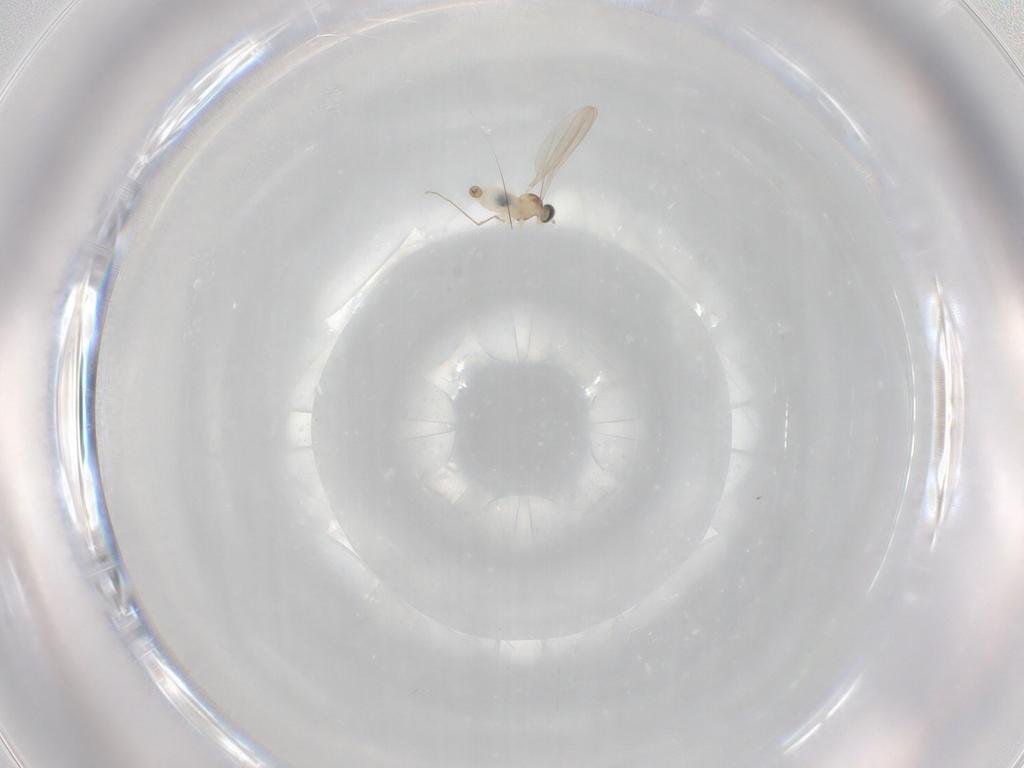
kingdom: Animalia
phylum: Arthropoda
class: Insecta
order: Diptera
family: Cecidomyiidae
